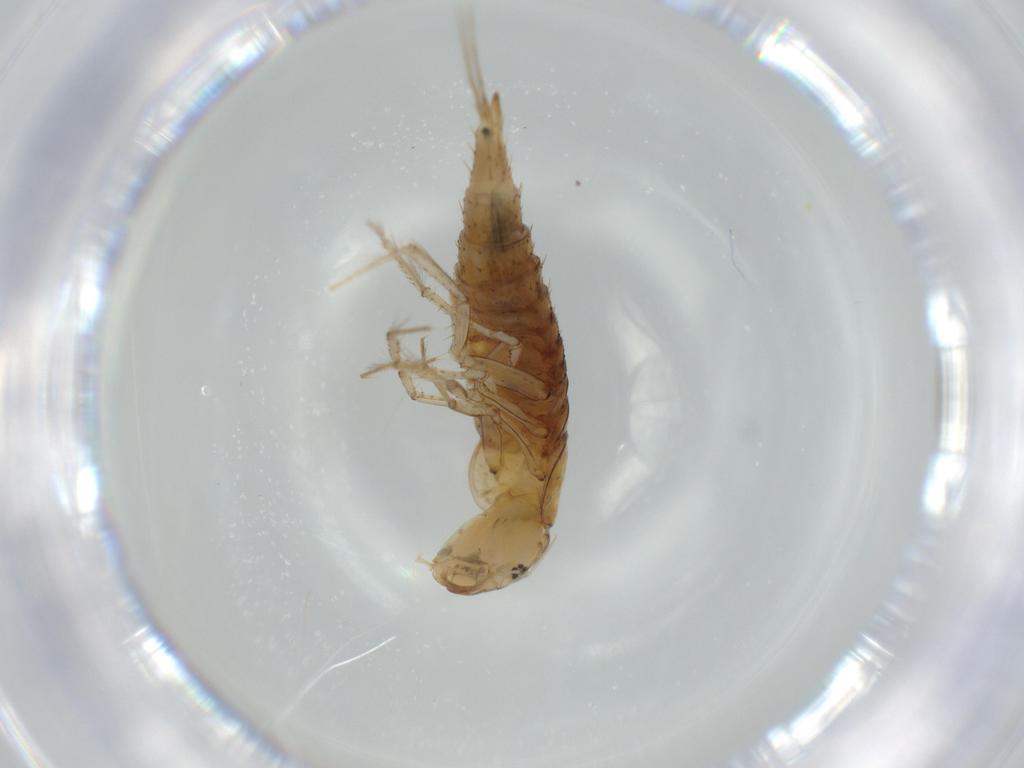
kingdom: Animalia
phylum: Arthropoda
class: Insecta
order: Coleoptera
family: Dytiscidae
